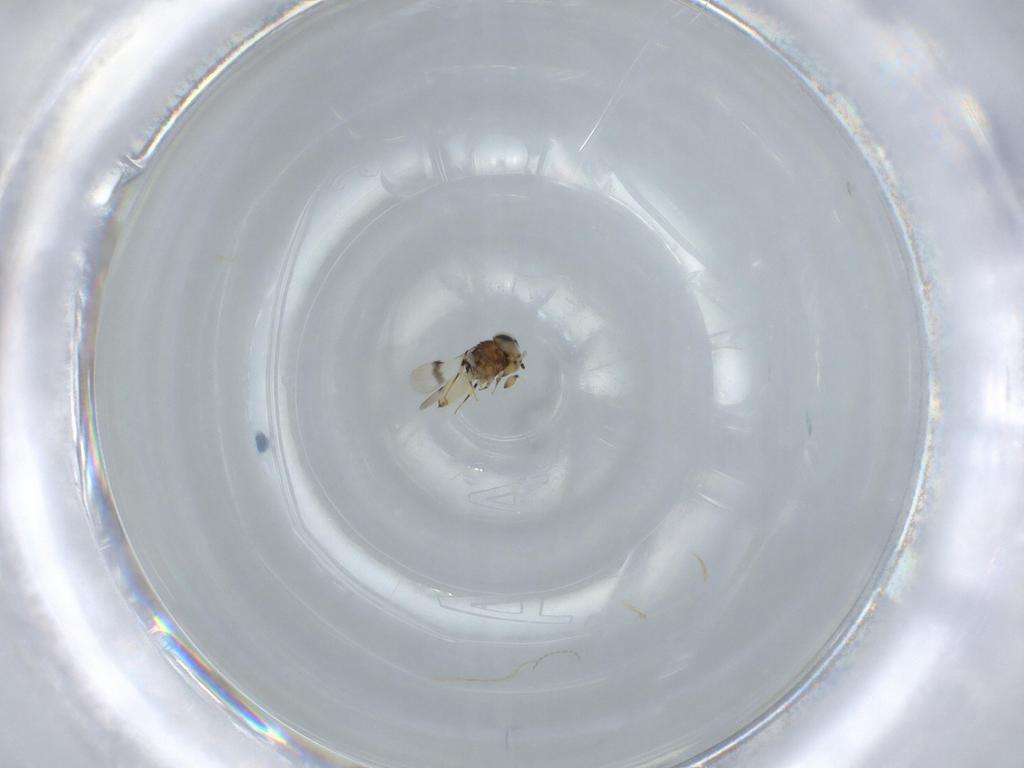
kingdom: Animalia
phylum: Arthropoda
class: Insecta
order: Hymenoptera
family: Scelionidae
